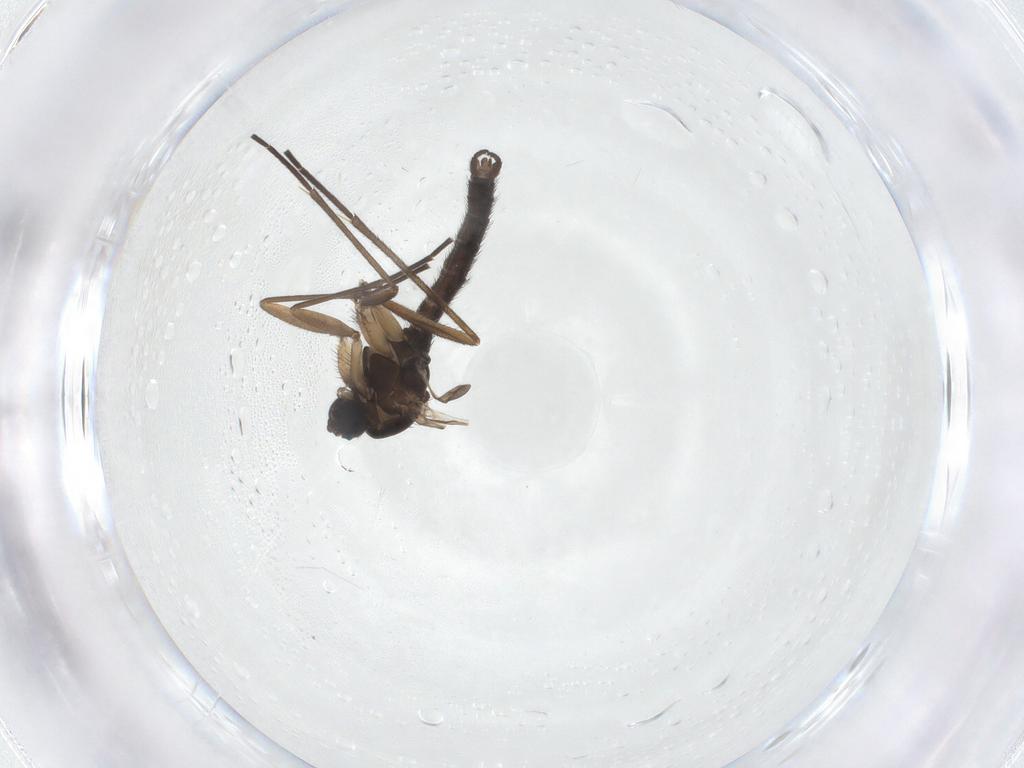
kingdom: Animalia
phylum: Arthropoda
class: Insecta
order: Diptera
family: Sciaridae
